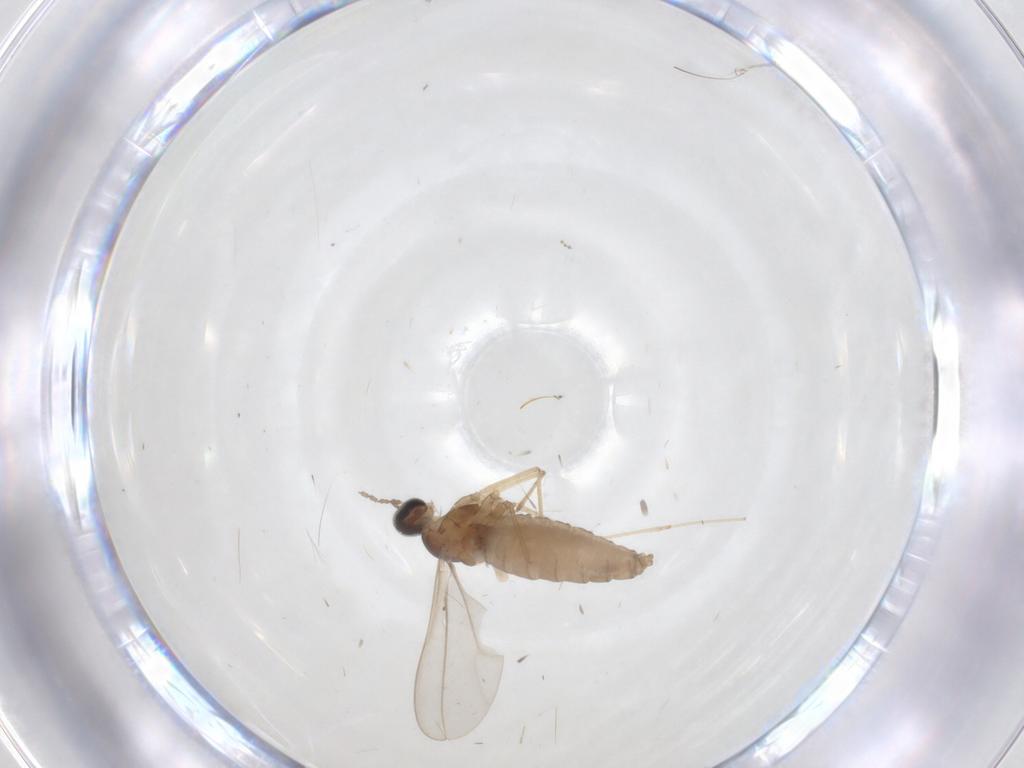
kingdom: Animalia
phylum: Arthropoda
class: Insecta
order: Diptera
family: Cecidomyiidae
